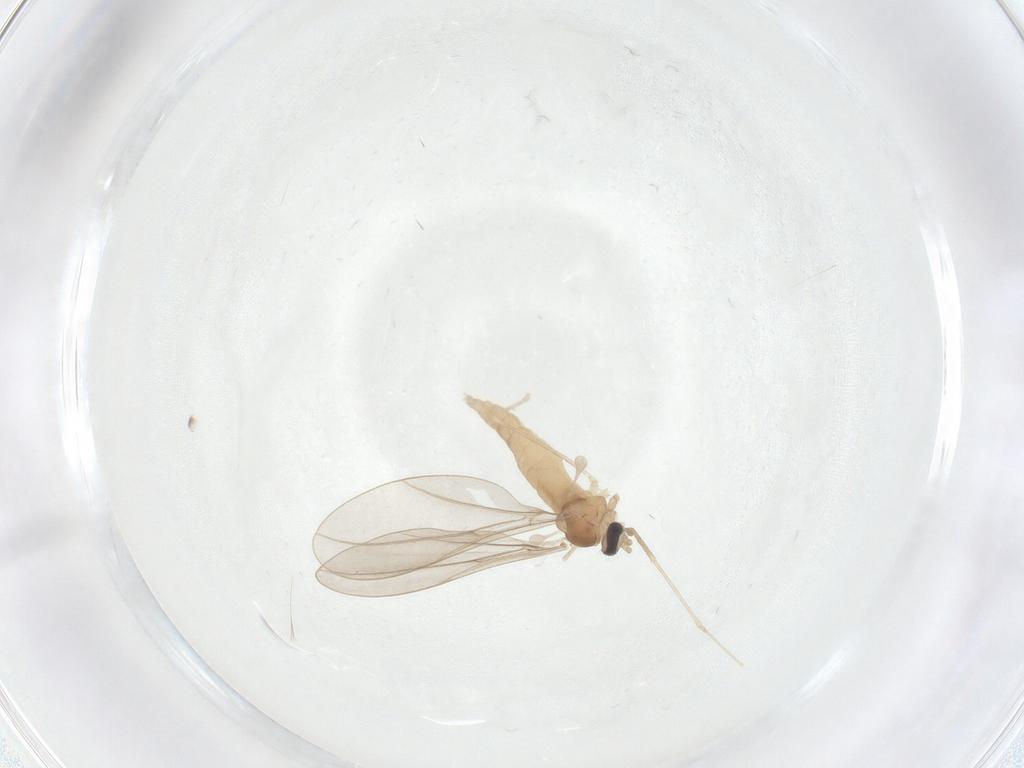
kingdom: Animalia
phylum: Arthropoda
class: Insecta
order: Diptera
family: Cecidomyiidae
